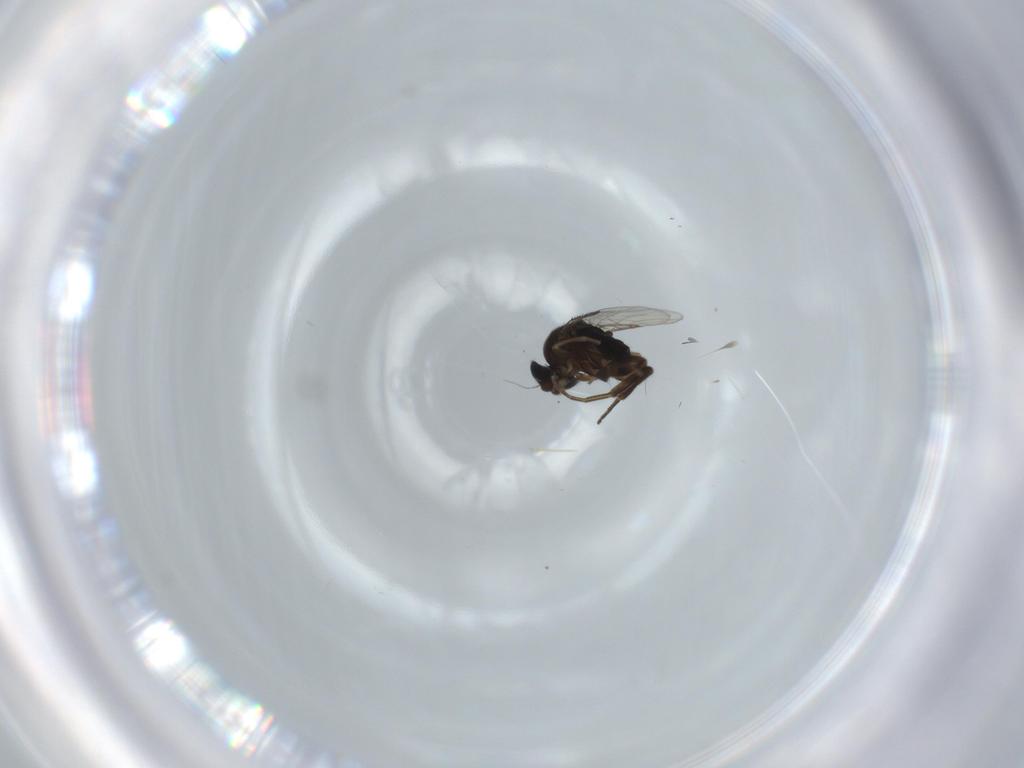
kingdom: Animalia
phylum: Arthropoda
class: Insecta
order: Diptera
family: Phoridae
